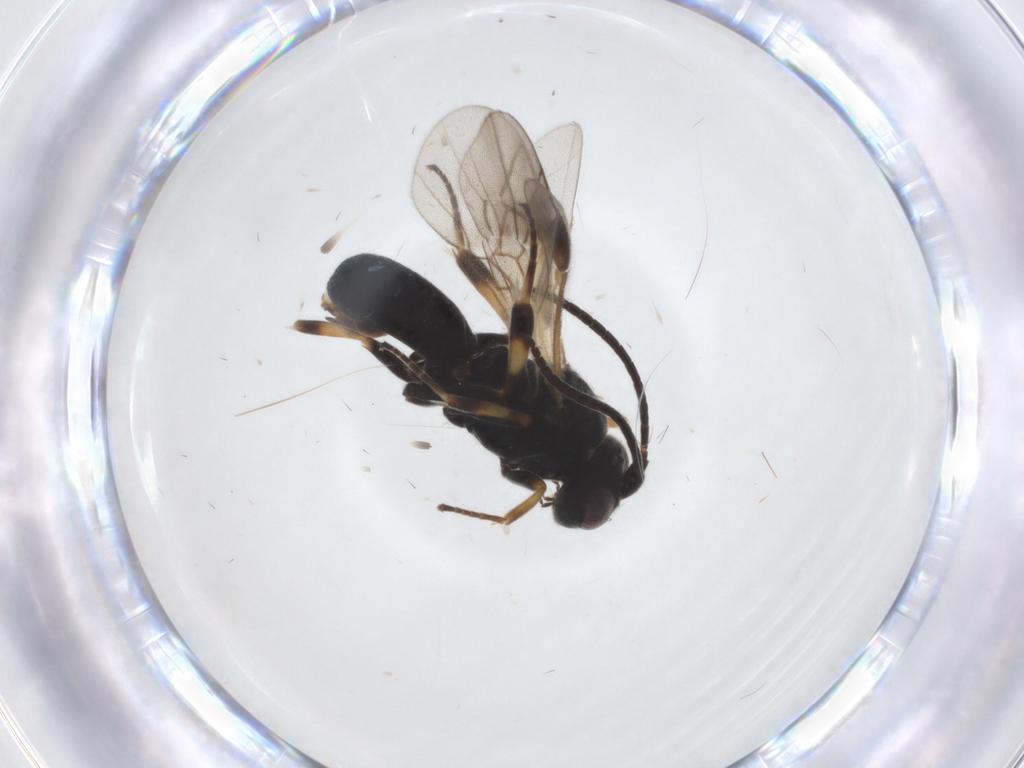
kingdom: Animalia
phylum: Arthropoda
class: Insecta
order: Hymenoptera
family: Braconidae
